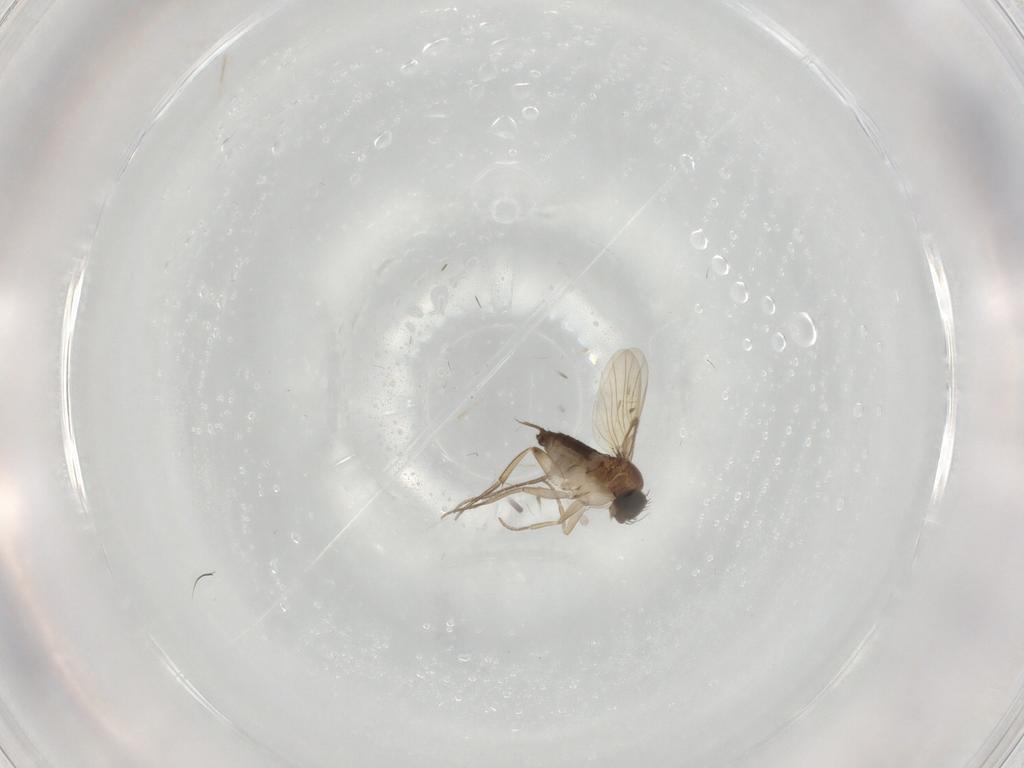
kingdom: Animalia
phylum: Arthropoda
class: Insecta
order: Diptera
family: Phoridae
